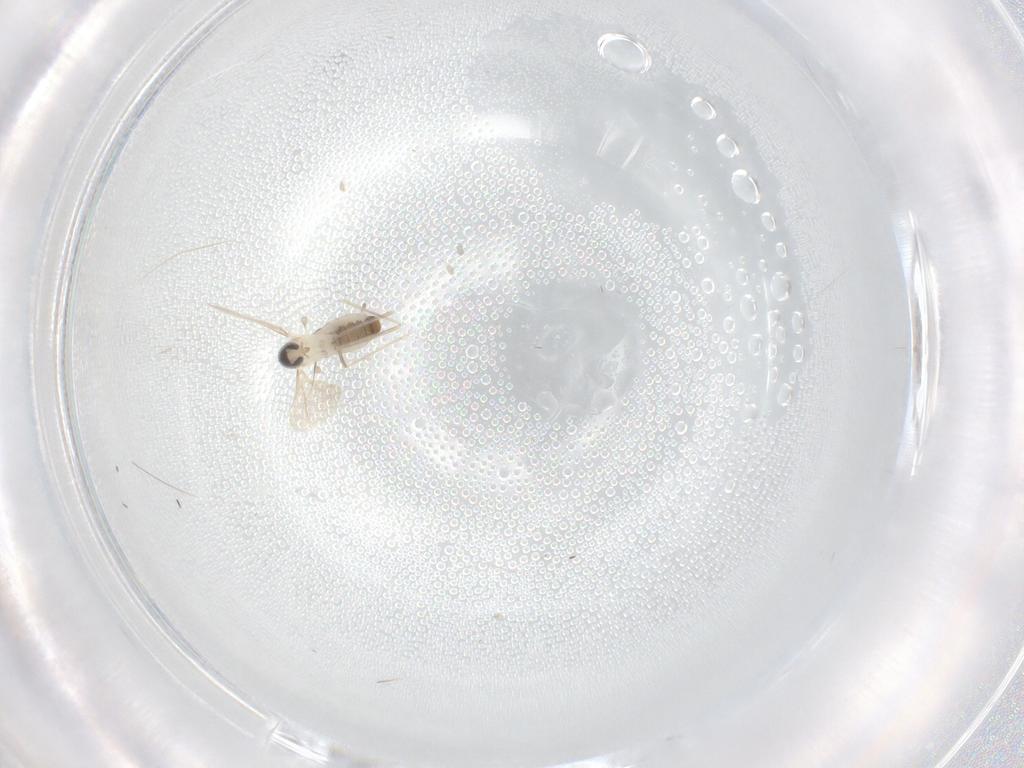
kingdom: Animalia
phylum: Arthropoda
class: Insecta
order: Diptera
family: Cecidomyiidae
